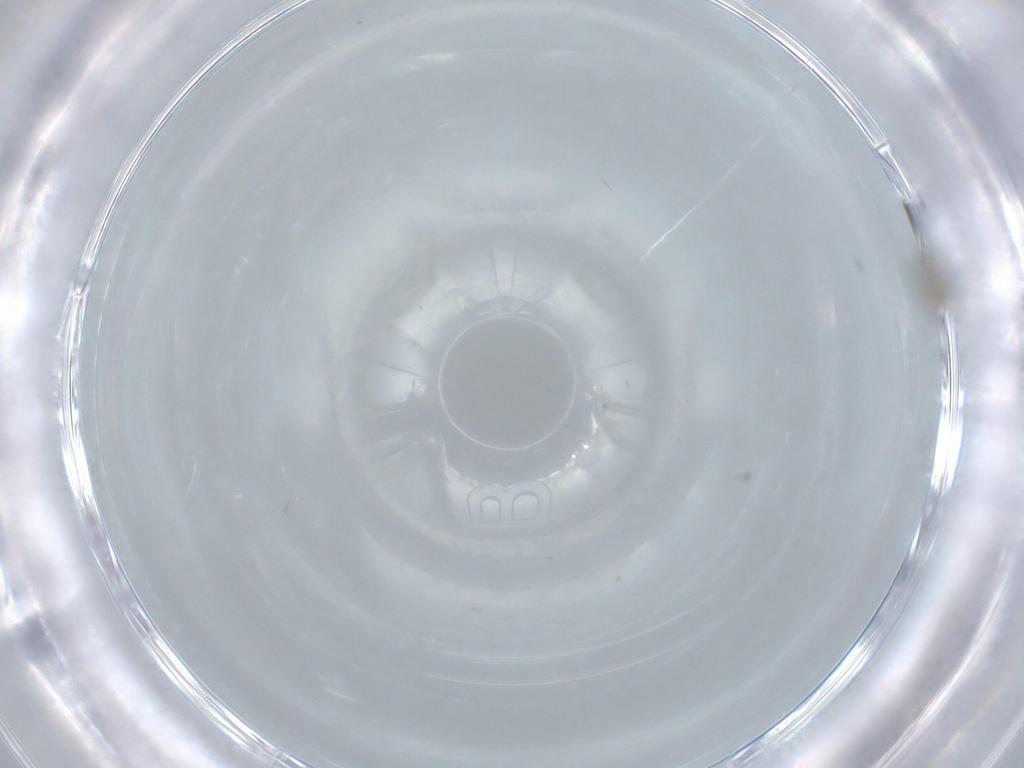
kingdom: Animalia
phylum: Arthropoda
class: Insecta
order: Diptera
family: Cecidomyiidae
